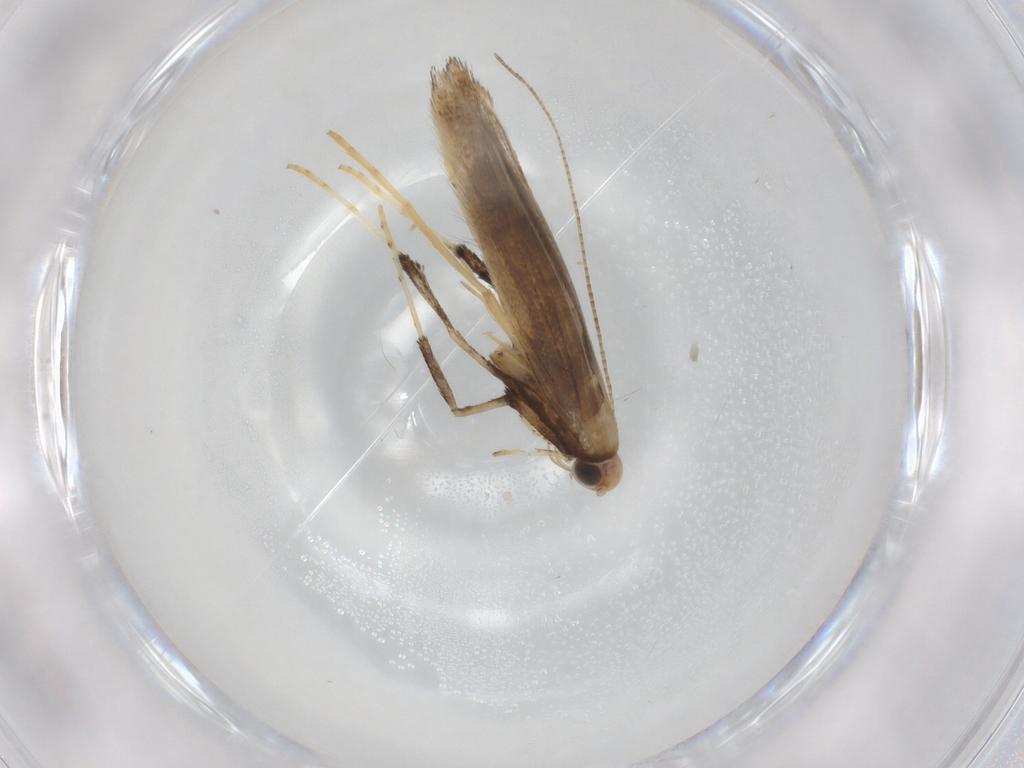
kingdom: Animalia
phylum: Arthropoda
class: Insecta
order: Lepidoptera
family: Gracillariidae
